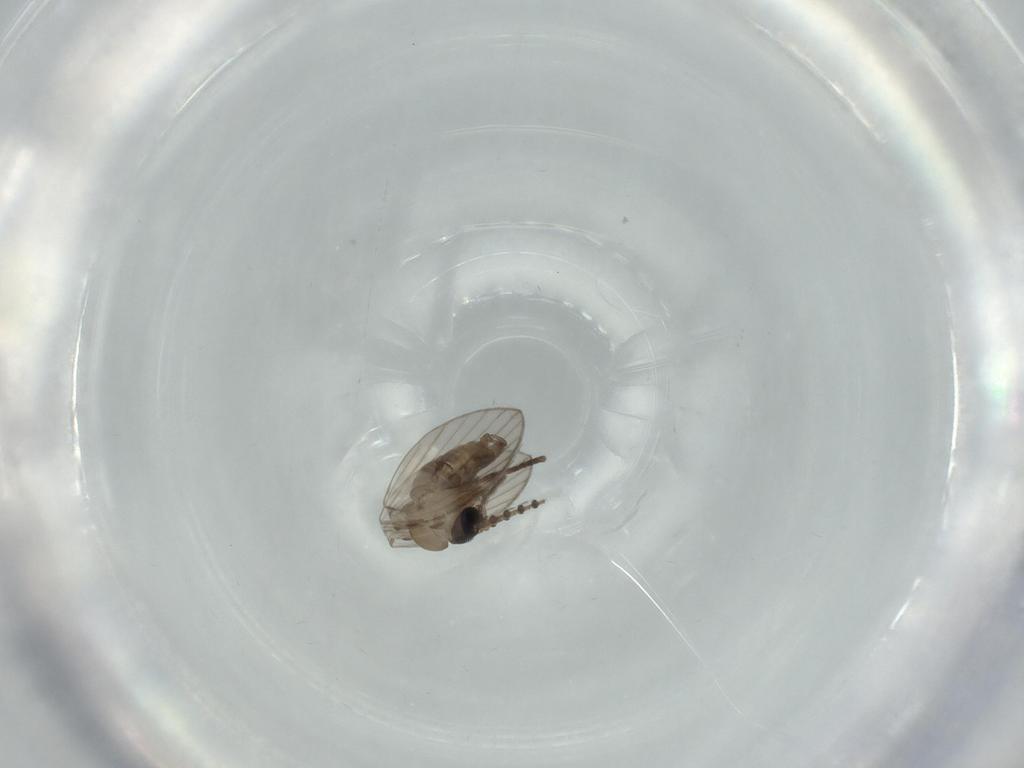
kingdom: Animalia
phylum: Arthropoda
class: Insecta
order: Diptera
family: Psychodidae
